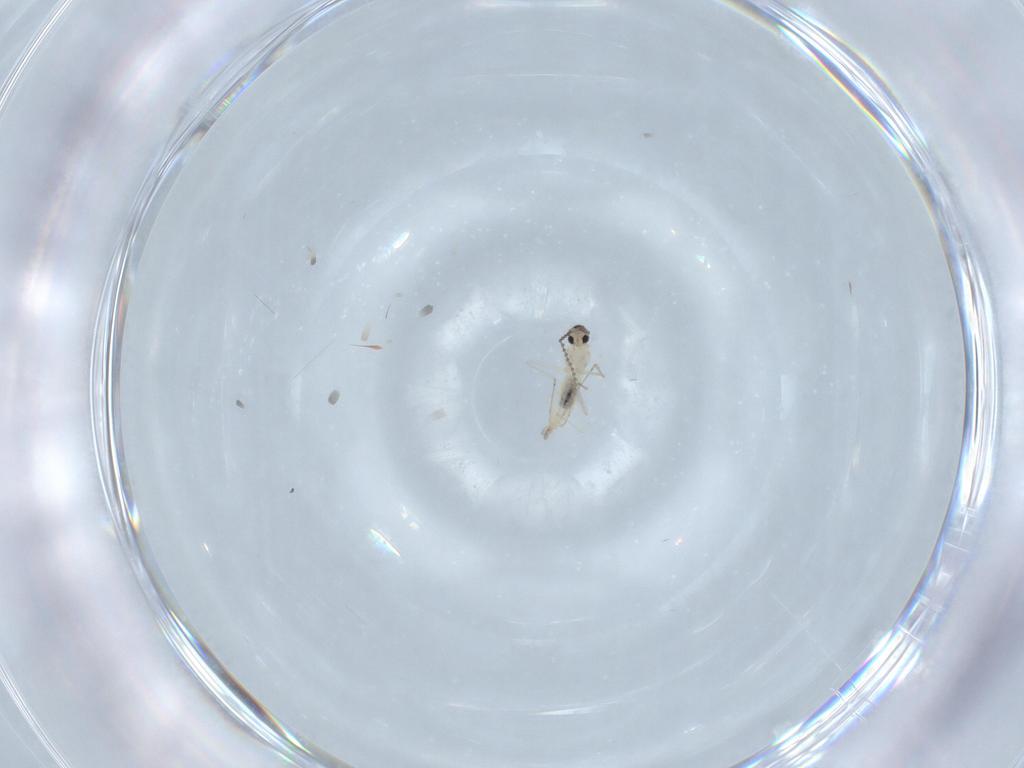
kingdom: Animalia
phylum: Arthropoda
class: Insecta
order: Diptera
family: Cecidomyiidae
